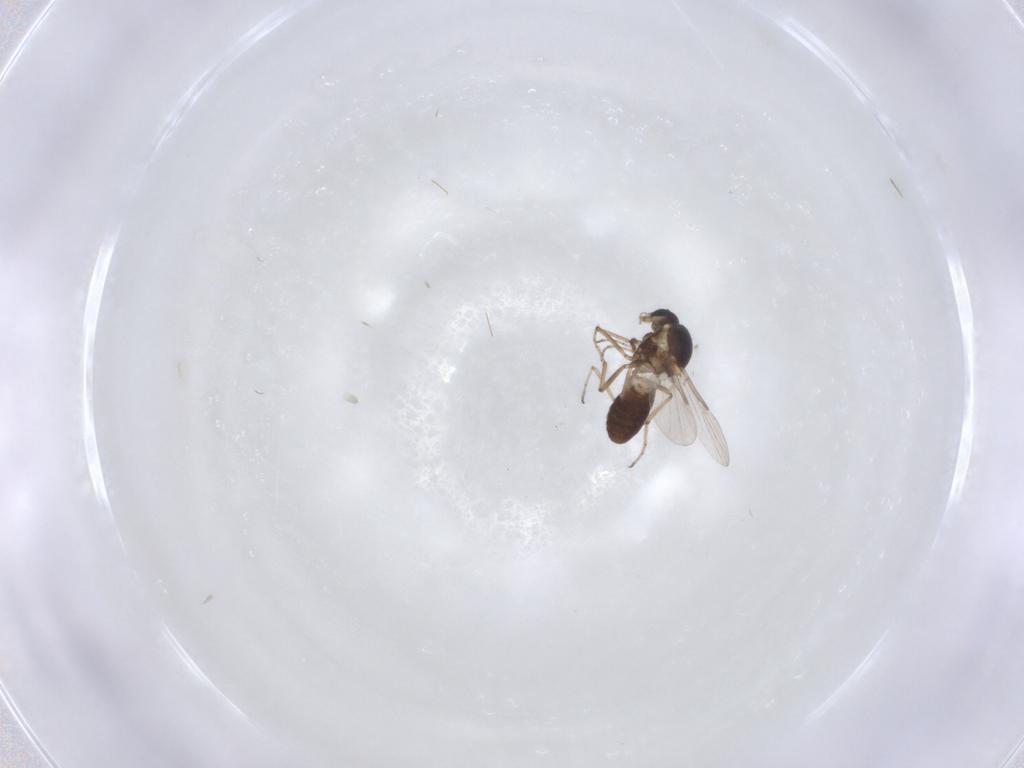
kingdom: Animalia
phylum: Arthropoda
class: Insecta
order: Diptera
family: Ceratopogonidae
